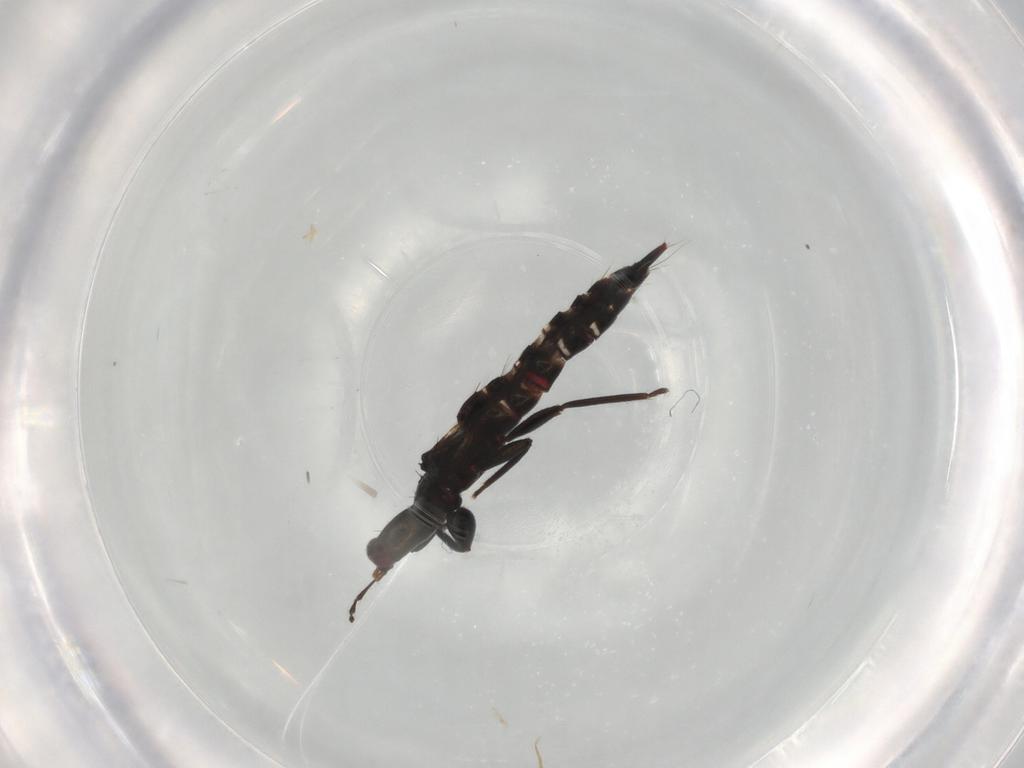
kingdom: Animalia
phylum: Arthropoda
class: Insecta
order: Thysanoptera
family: Phlaeothripidae
